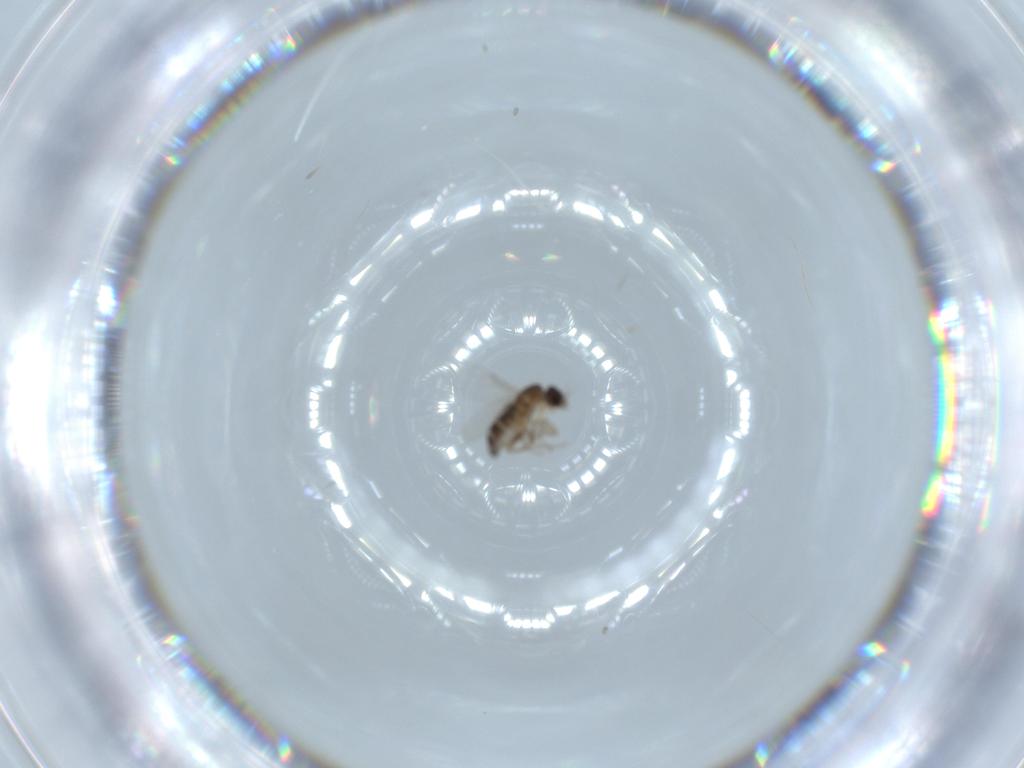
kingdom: Animalia
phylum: Arthropoda
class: Insecta
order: Diptera
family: Phoridae
